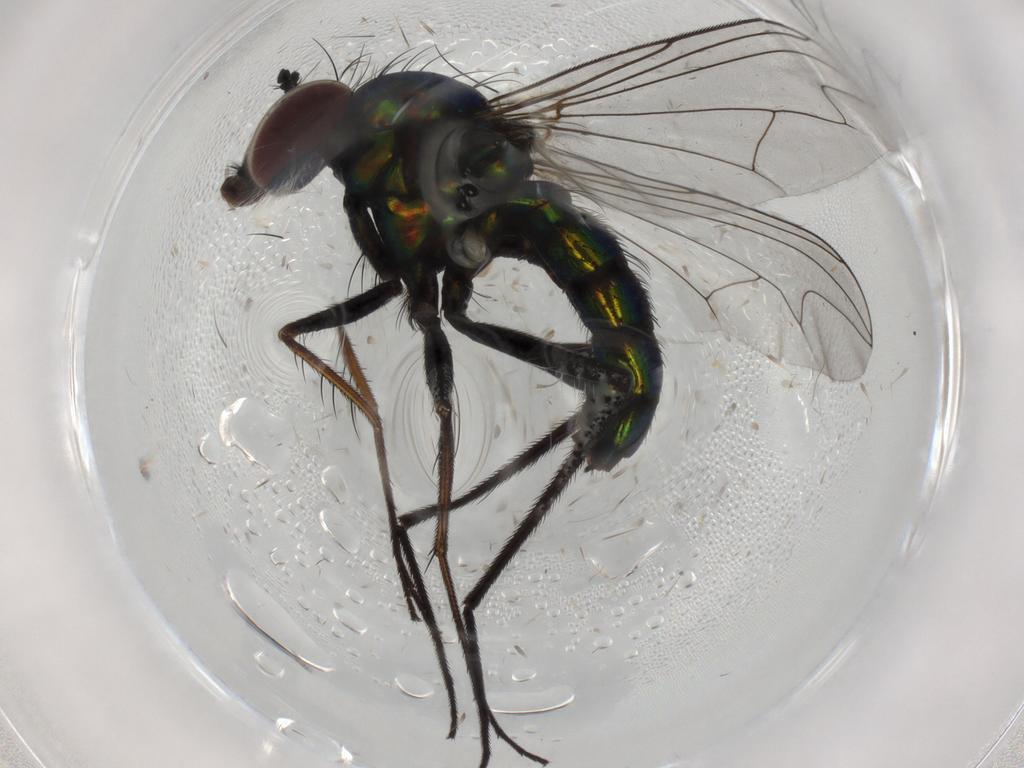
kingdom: Animalia
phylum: Arthropoda
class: Insecta
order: Diptera
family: Dolichopodidae
